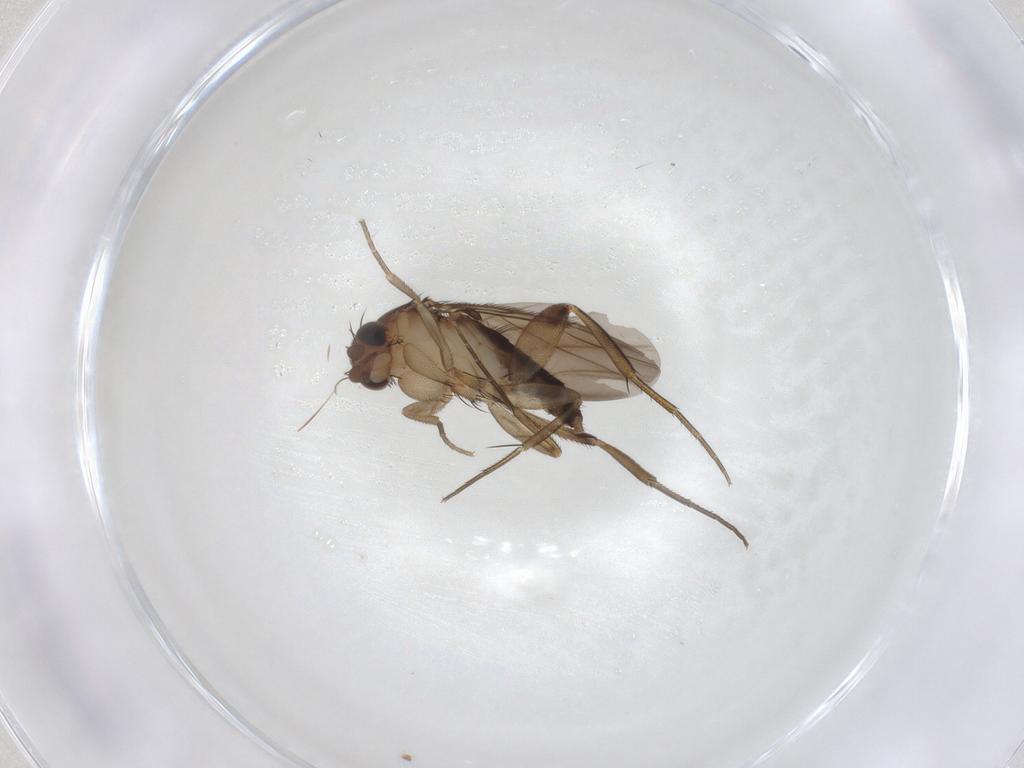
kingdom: Animalia
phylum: Arthropoda
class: Insecta
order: Diptera
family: Phoridae
